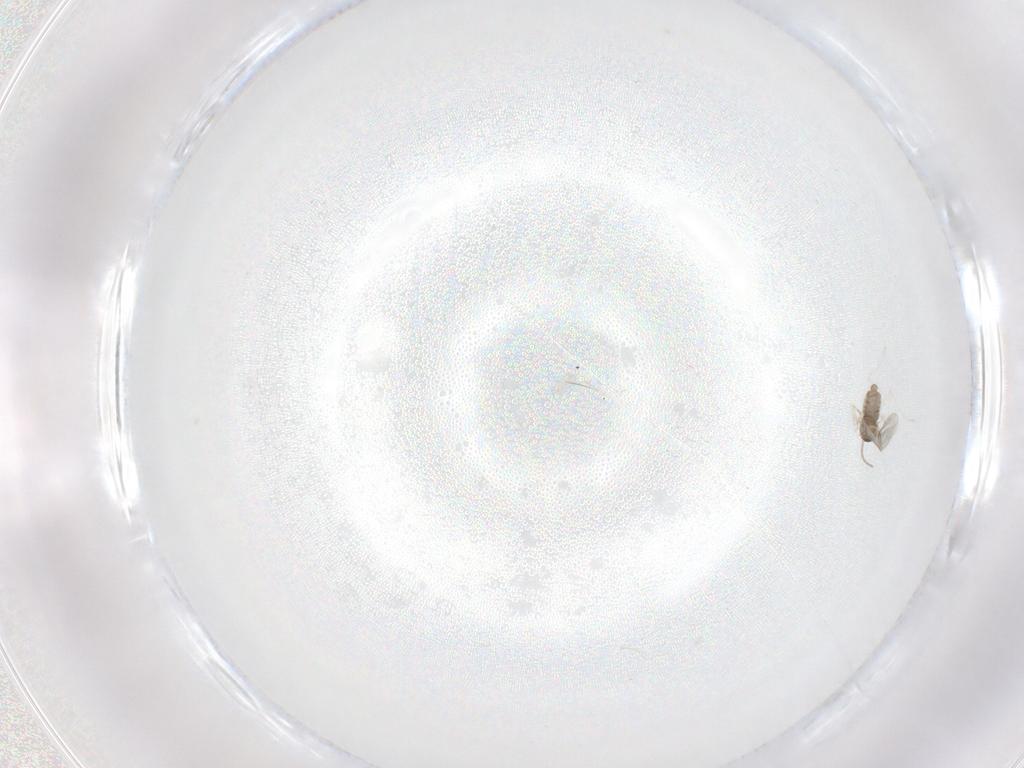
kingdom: Animalia
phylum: Arthropoda
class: Insecta
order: Diptera
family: Cecidomyiidae
